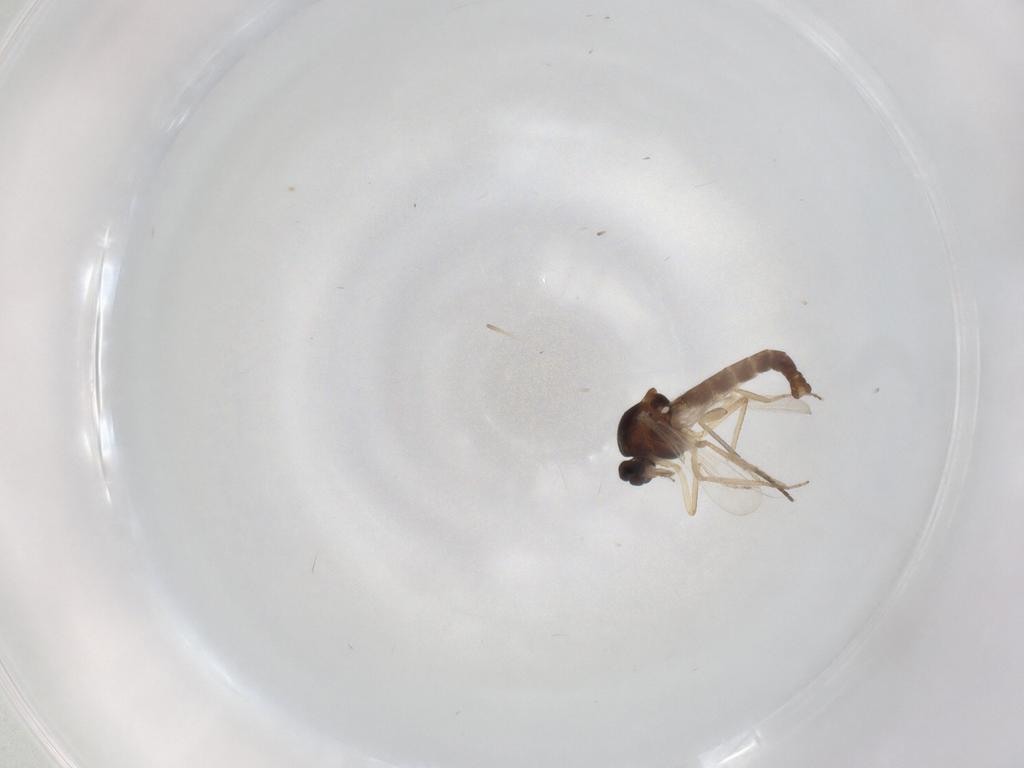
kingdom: Animalia
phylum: Arthropoda
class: Insecta
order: Diptera
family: Ceratopogonidae
